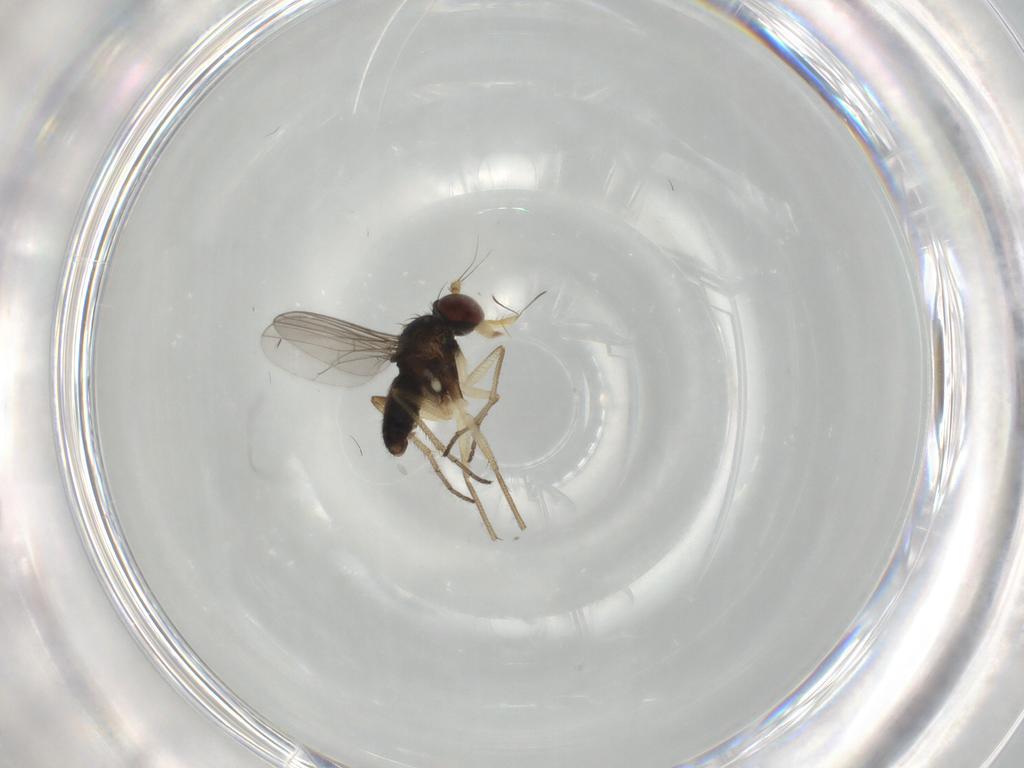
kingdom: Animalia
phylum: Arthropoda
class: Insecta
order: Diptera
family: Dolichopodidae
